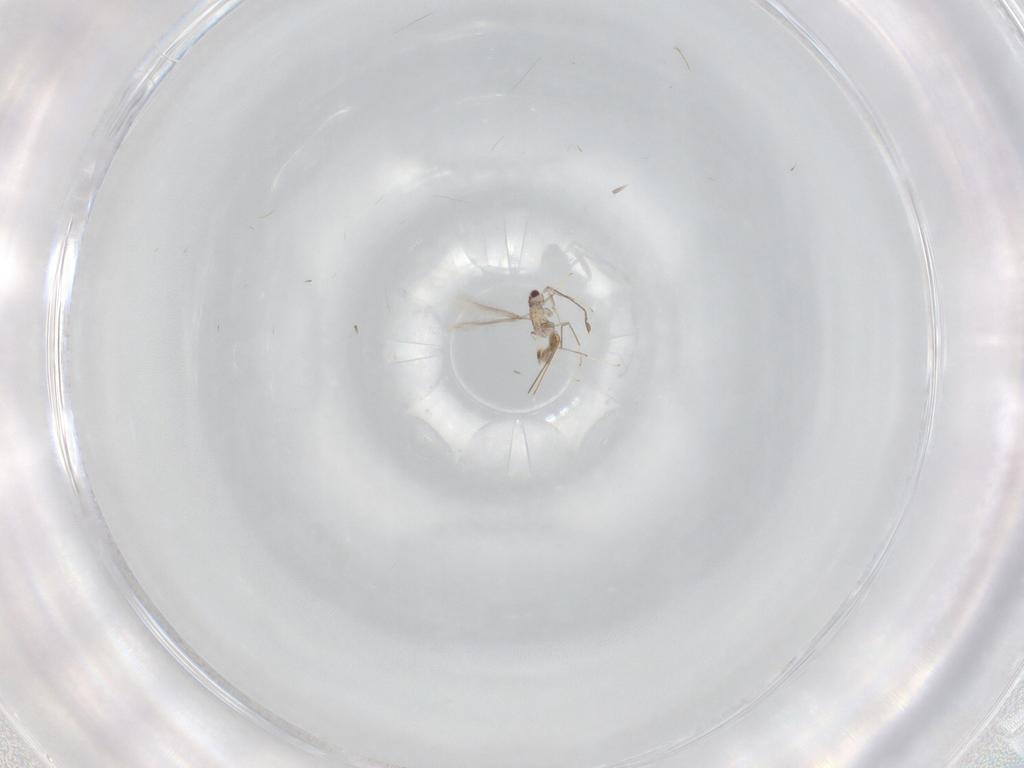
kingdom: Animalia
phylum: Arthropoda
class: Insecta
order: Hymenoptera
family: Mymaridae
